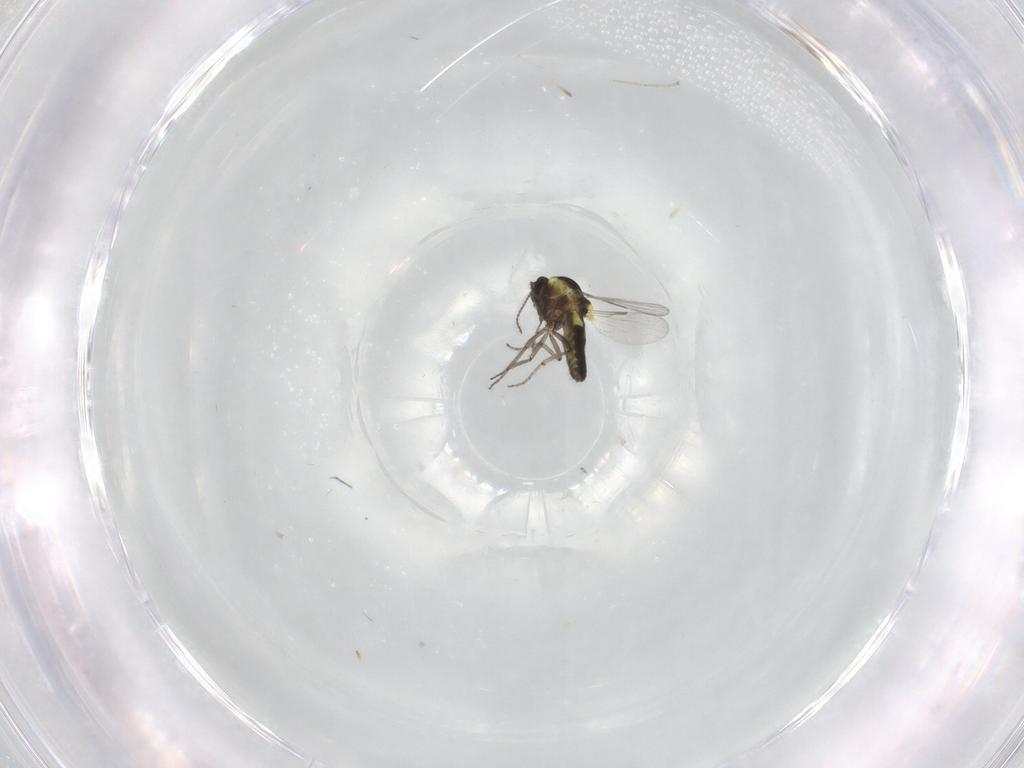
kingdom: Animalia
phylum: Arthropoda
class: Insecta
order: Diptera
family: Ceratopogonidae
